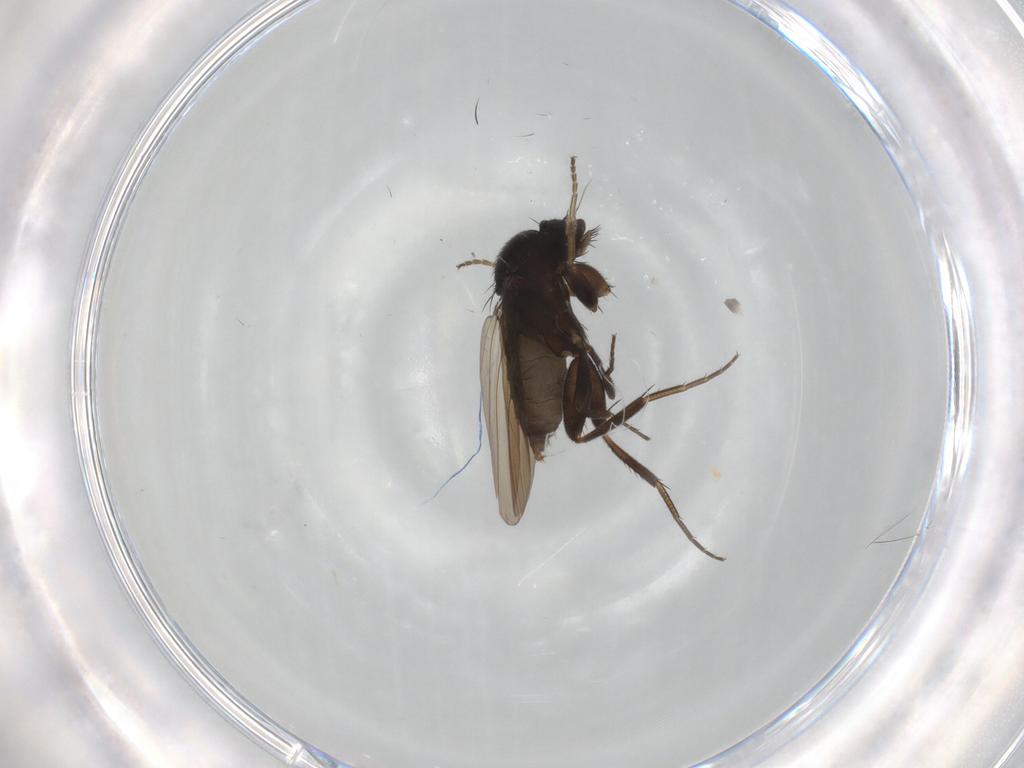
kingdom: Animalia
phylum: Arthropoda
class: Insecta
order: Diptera
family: Phoridae
